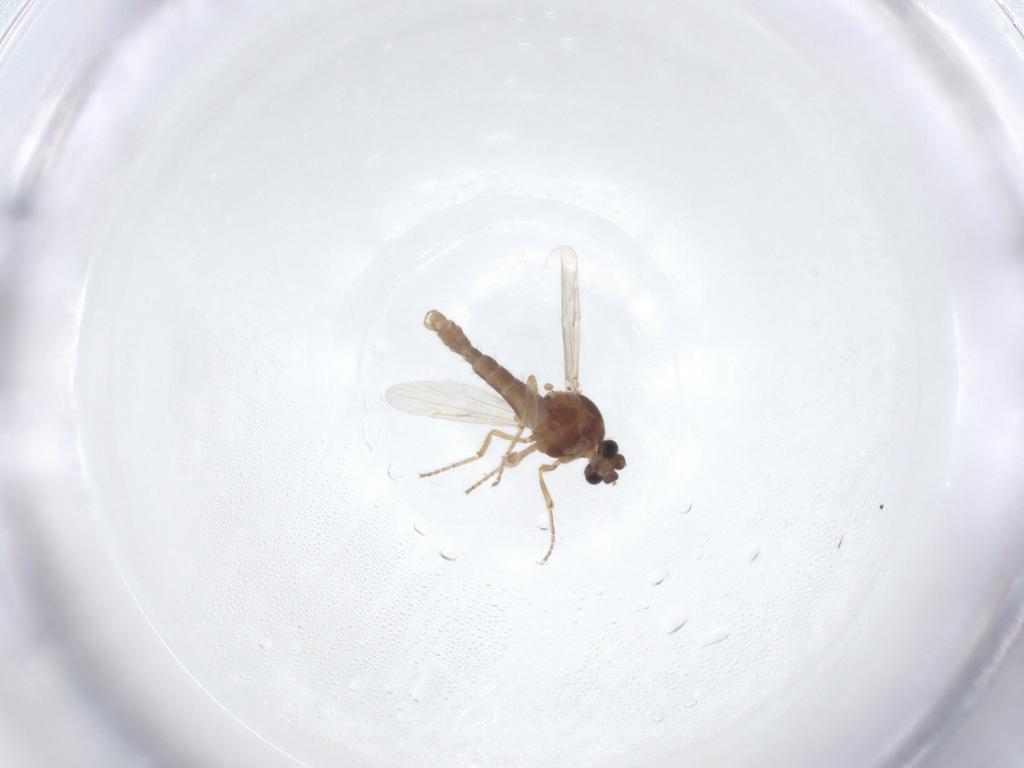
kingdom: Animalia
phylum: Arthropoda
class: Insecta
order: Diptera
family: Ceratopogonidae
